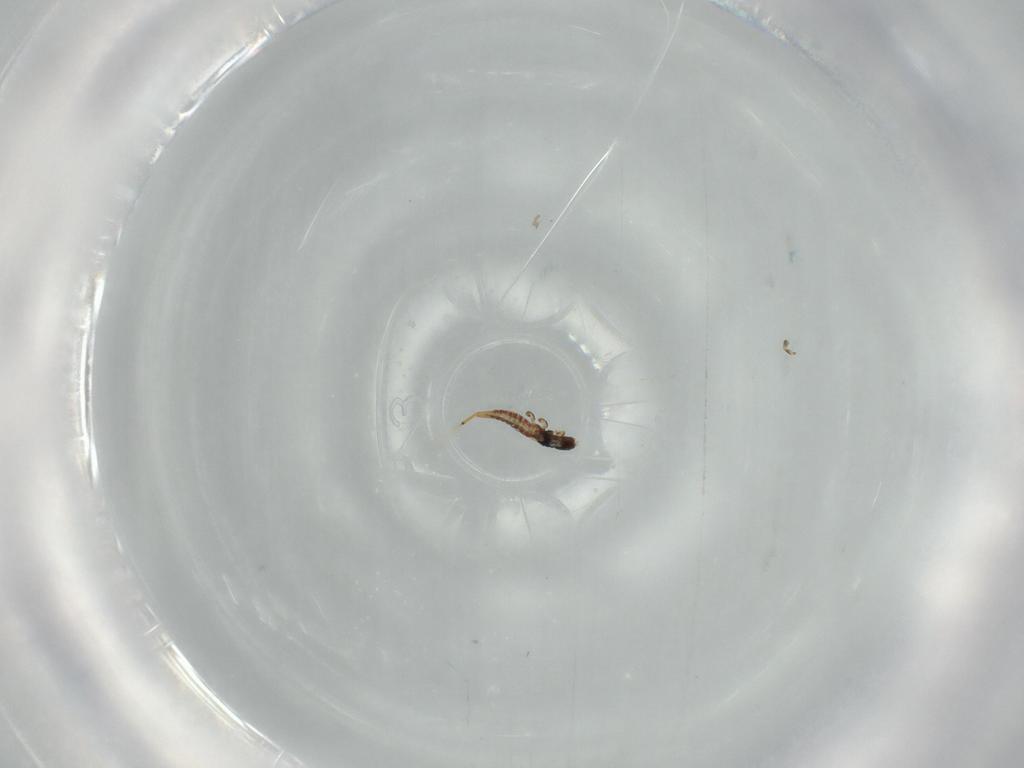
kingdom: Animalia
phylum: Arthropoda
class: Insecta
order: Thysanoptera
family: Phlaeothripidae
